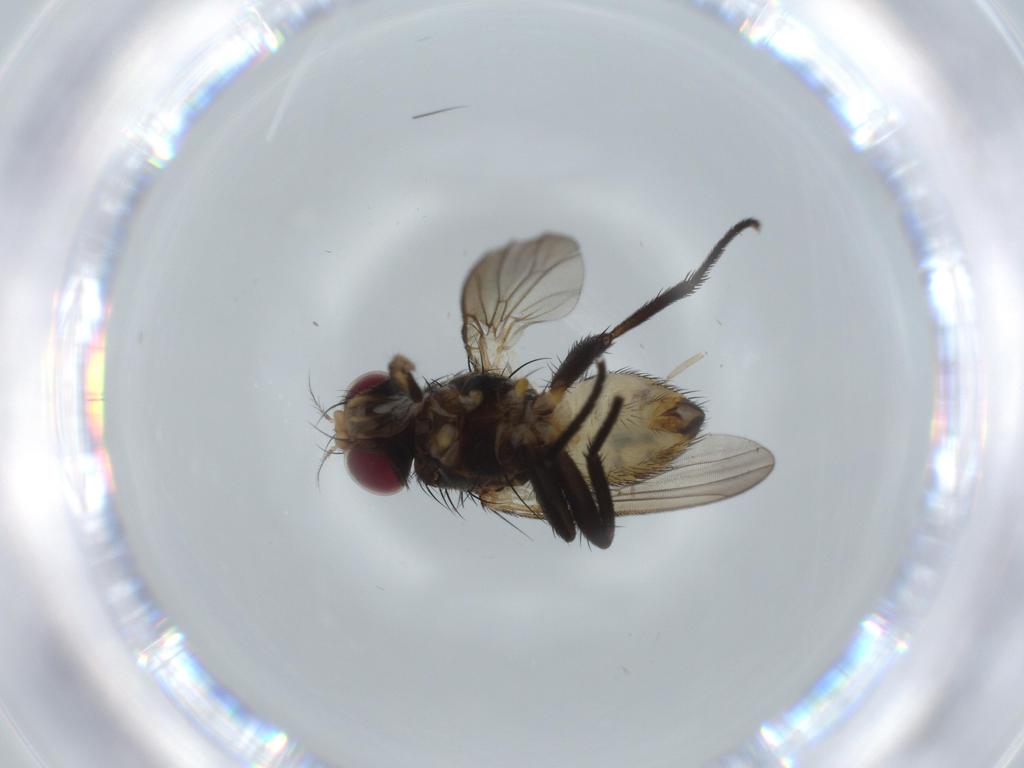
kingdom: Animalia
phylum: Arthropoda
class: Insecta
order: Diptera
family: Anthomyiidae
